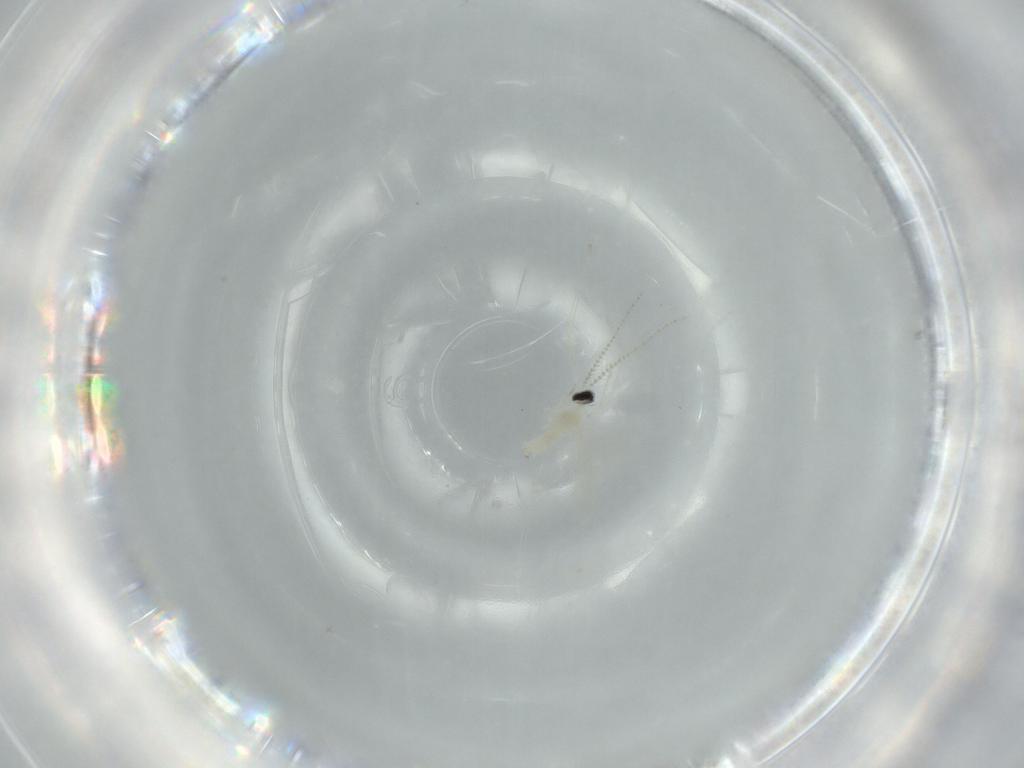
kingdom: Animalia
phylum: Arthropoda
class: Insecta
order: Diptera
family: Cecidomyiidae
